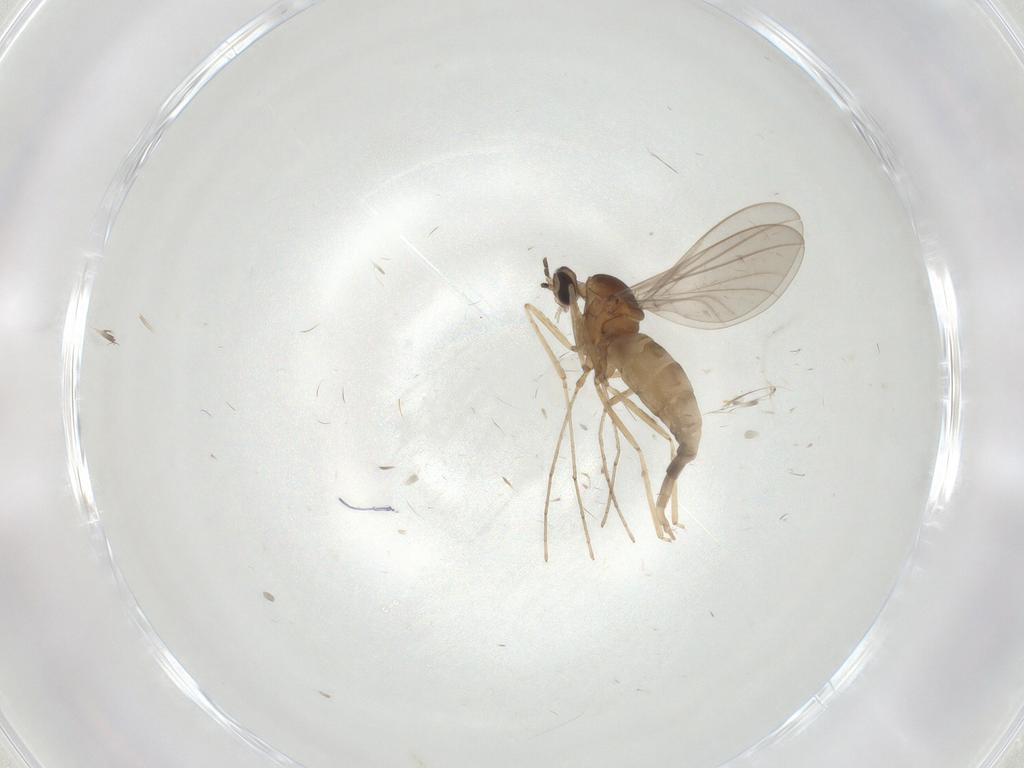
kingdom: Animalia
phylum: Arthropoda
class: Insecta
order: Diptera
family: Cecidomyiidae
